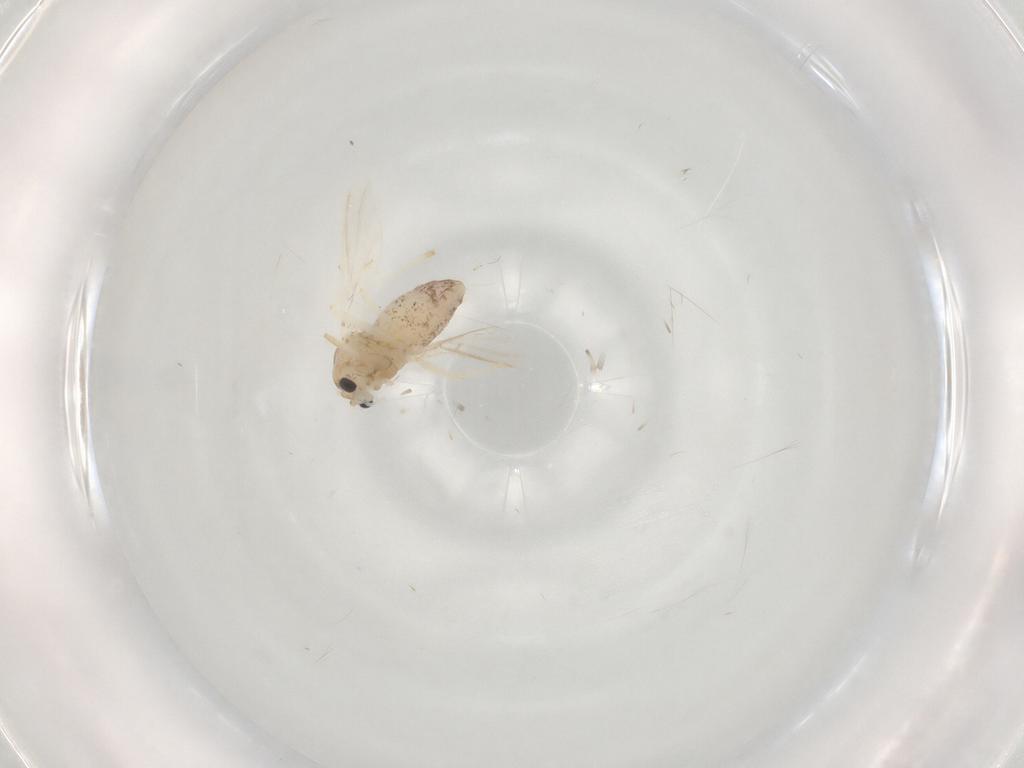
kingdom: Animalia
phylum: Arthropoda
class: Insecta
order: Diptera
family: Chironomidae
